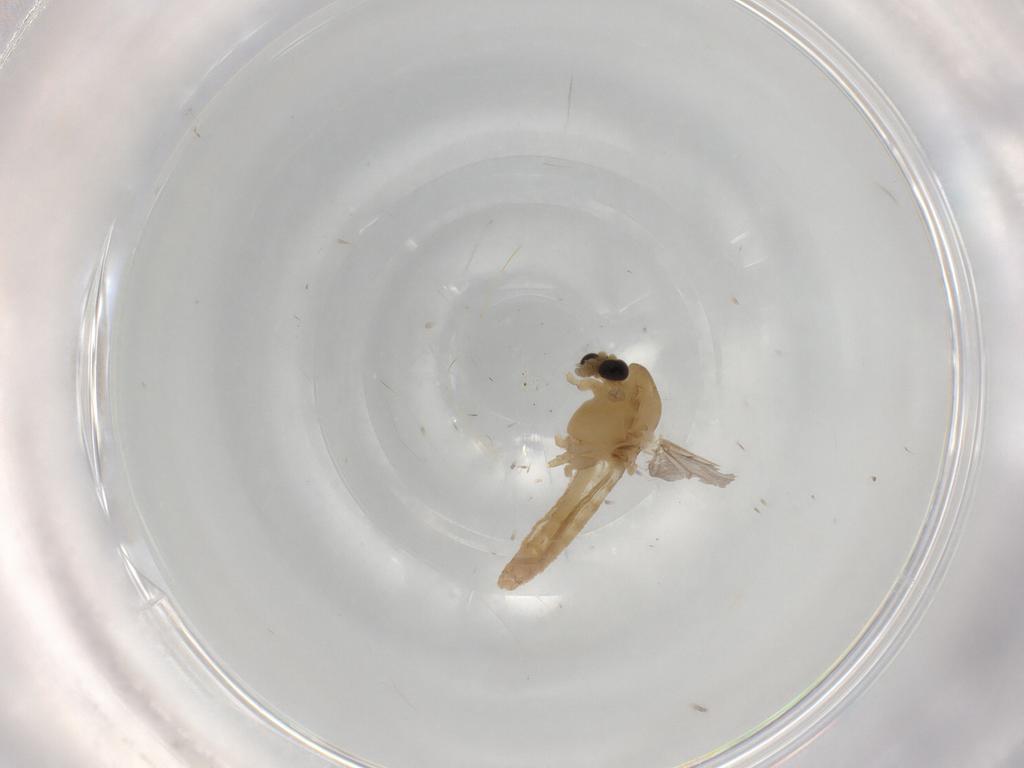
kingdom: Animalia
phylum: Arthropoda
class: Insecta
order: Diptera
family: Chironomidae
